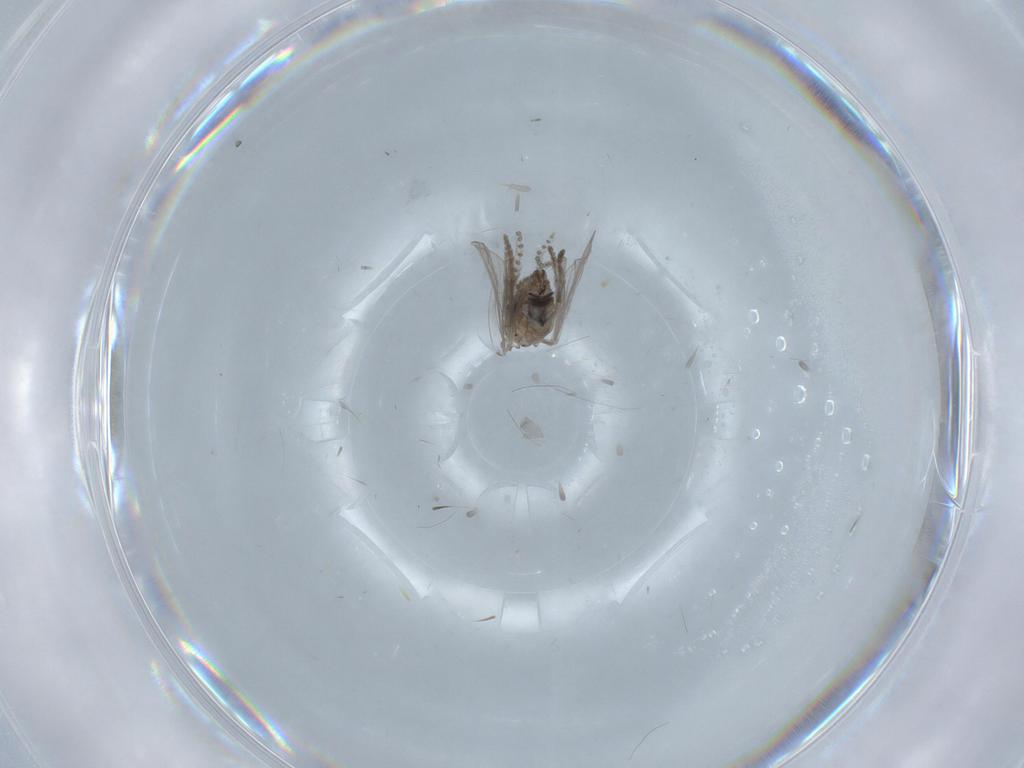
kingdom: Animalia
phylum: Arthropoda
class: Insecta
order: Diptera
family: Psychodidae
